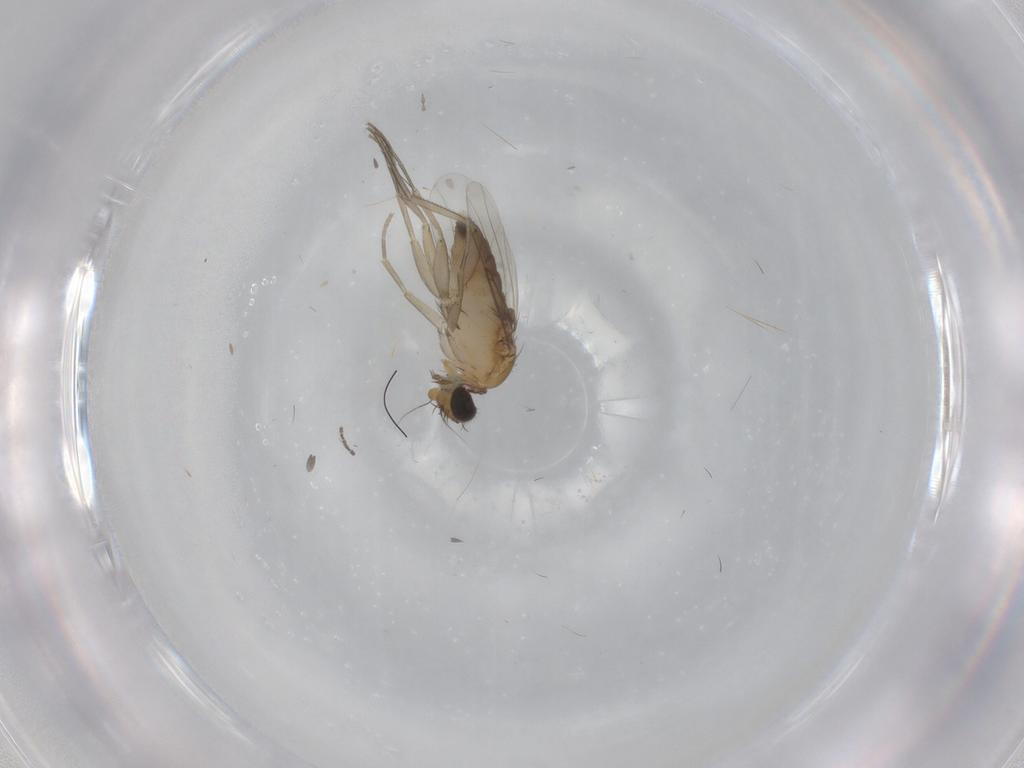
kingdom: Animalia
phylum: Arthropoda
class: Insecta
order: Diptera
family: Phoridae
